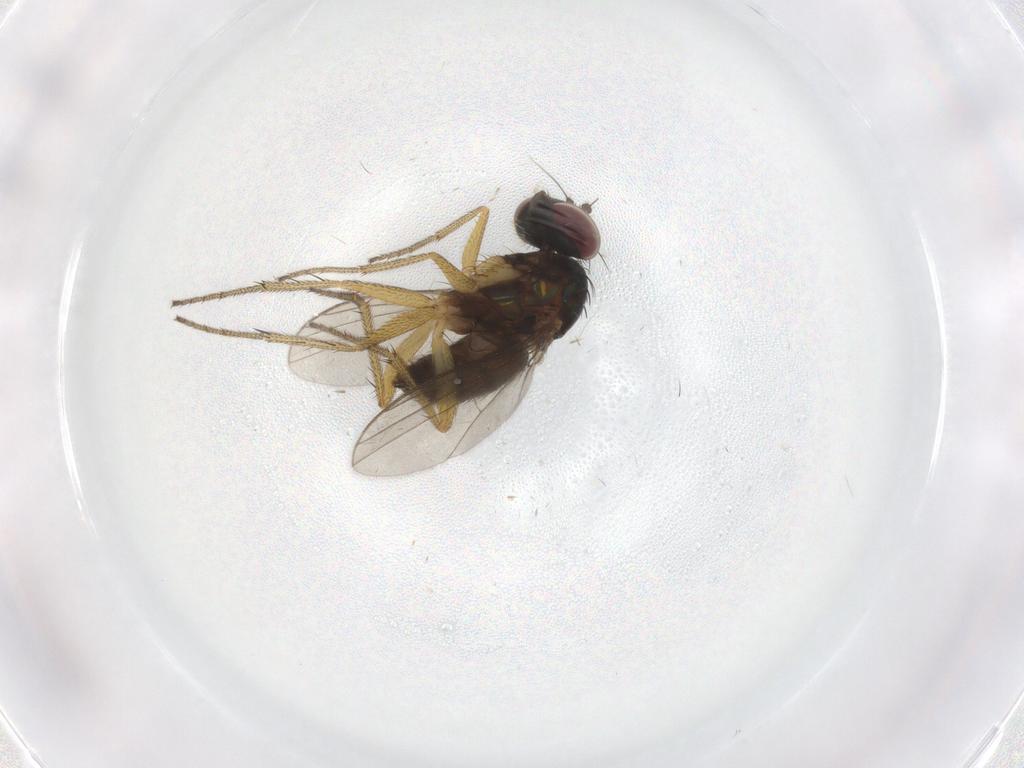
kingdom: Animalia
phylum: Arthropoda
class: Insecta
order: Diptera
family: Dolichopodidae
